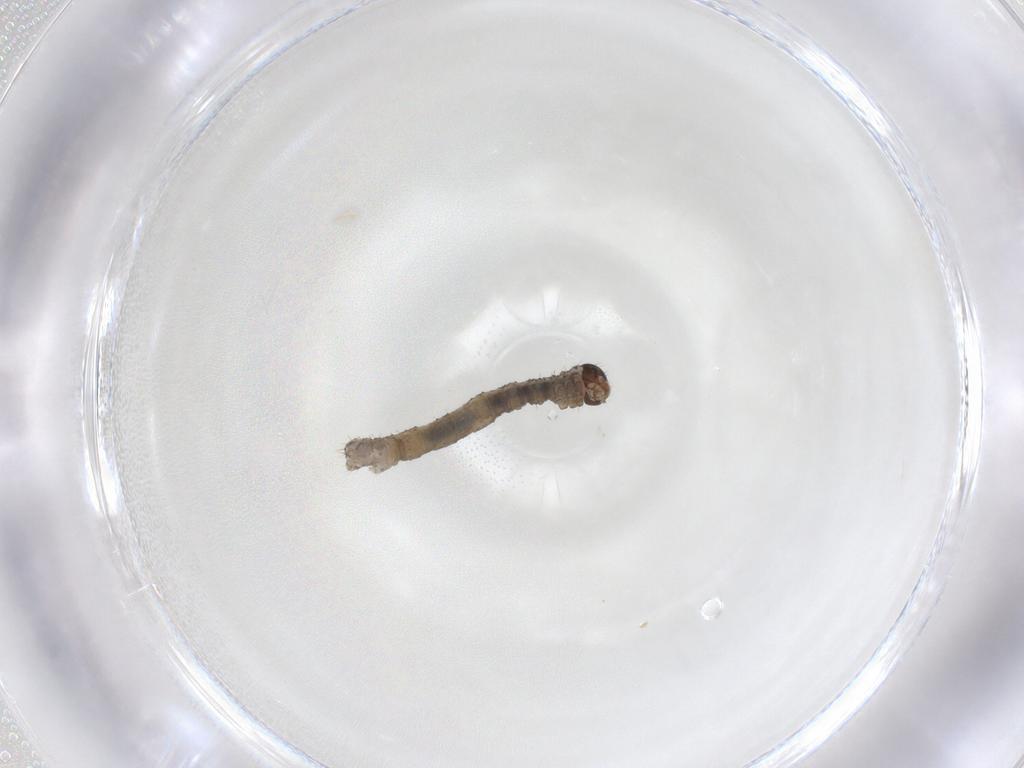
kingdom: Animalia
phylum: Arthropoda
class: Insecta
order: Lepidoptera
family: Geometridae
